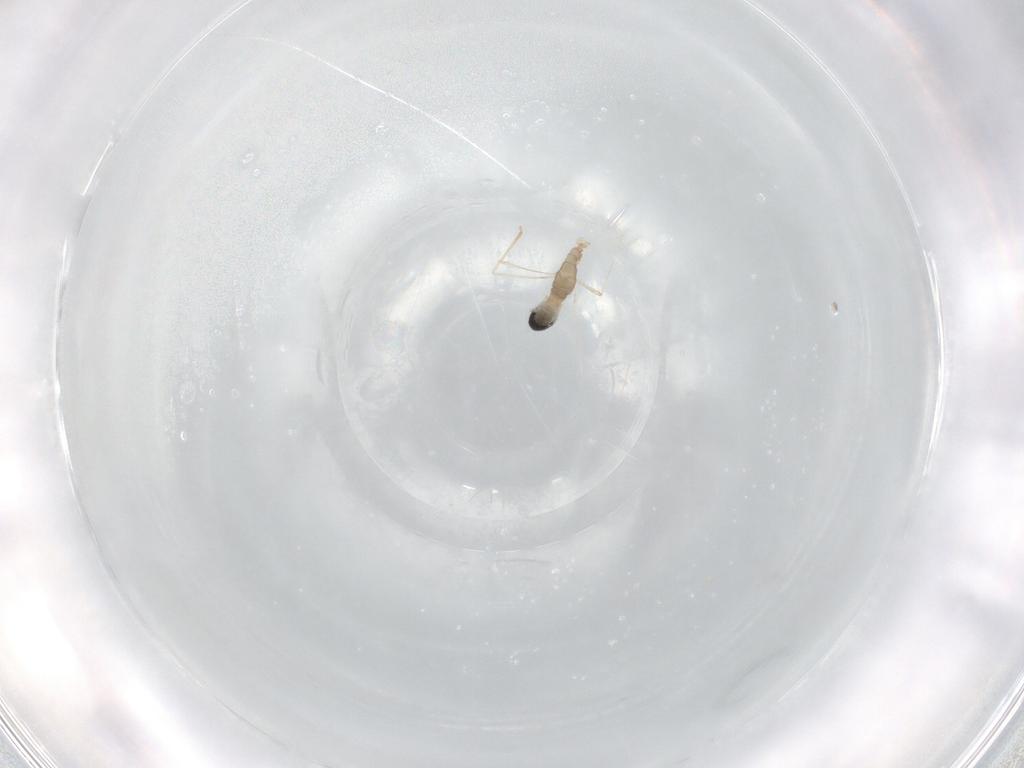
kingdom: Animalia
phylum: Arthropoda
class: Insecta
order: Diptera
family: Cecidomyiidae
